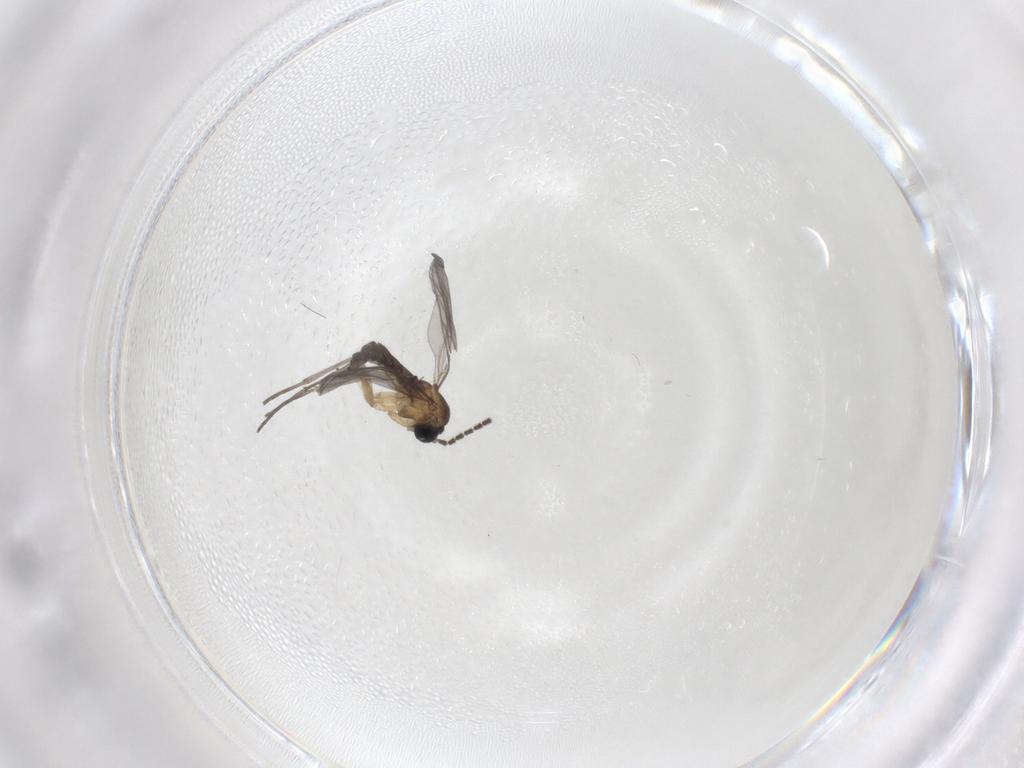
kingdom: Animalia
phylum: Arthropoda
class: Insecta
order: Diptera
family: Sciaridae
